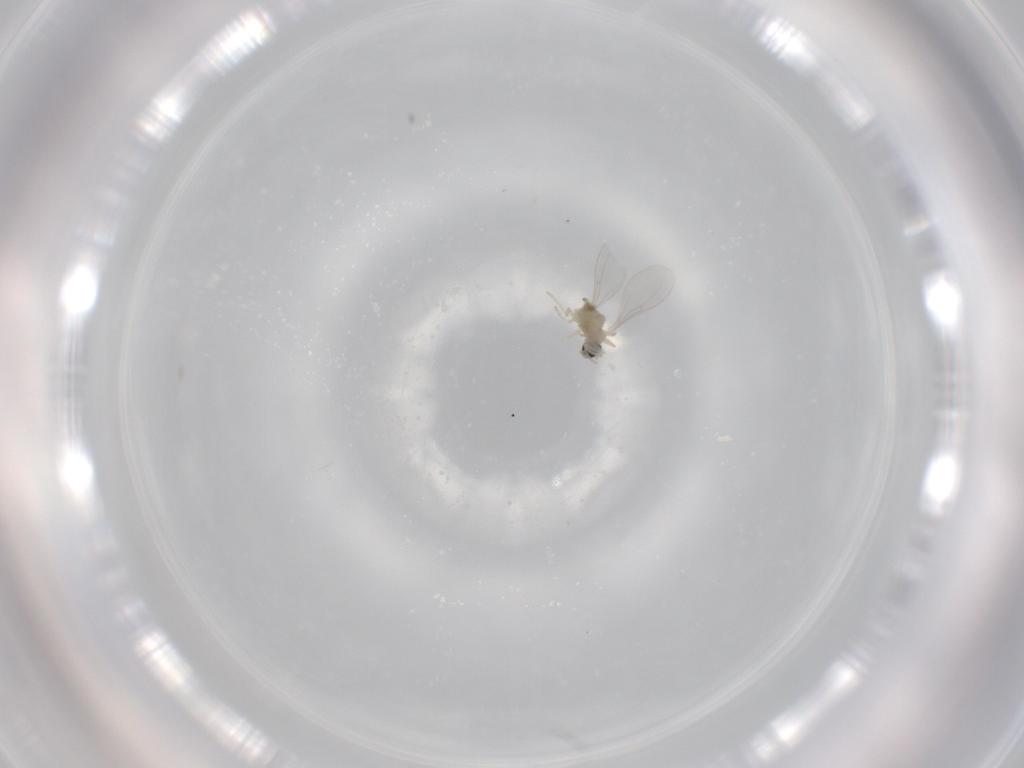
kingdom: Animalia
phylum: Arthropoda
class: Insecta
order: Diptera
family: Cecidomyiidae
